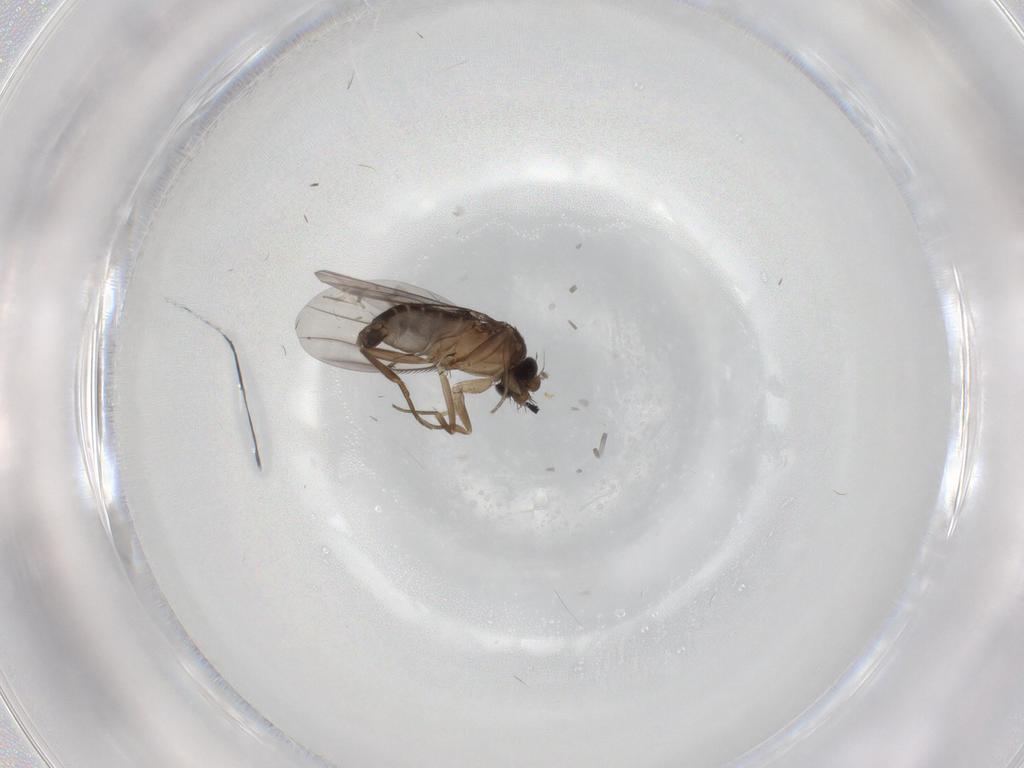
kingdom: Animalia
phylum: Arthropoda
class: Insecta
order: Diptera
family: Phoridae
